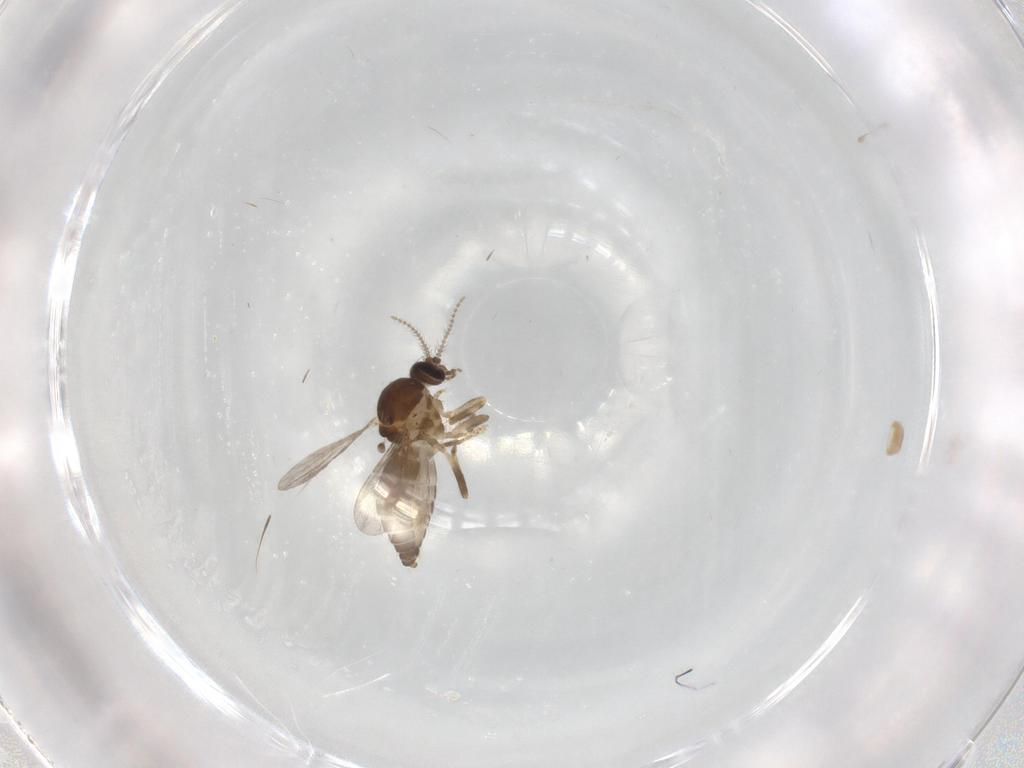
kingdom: Animalia
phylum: Arthropoda
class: Insecta
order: Diptera
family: Ceratopogonidae
